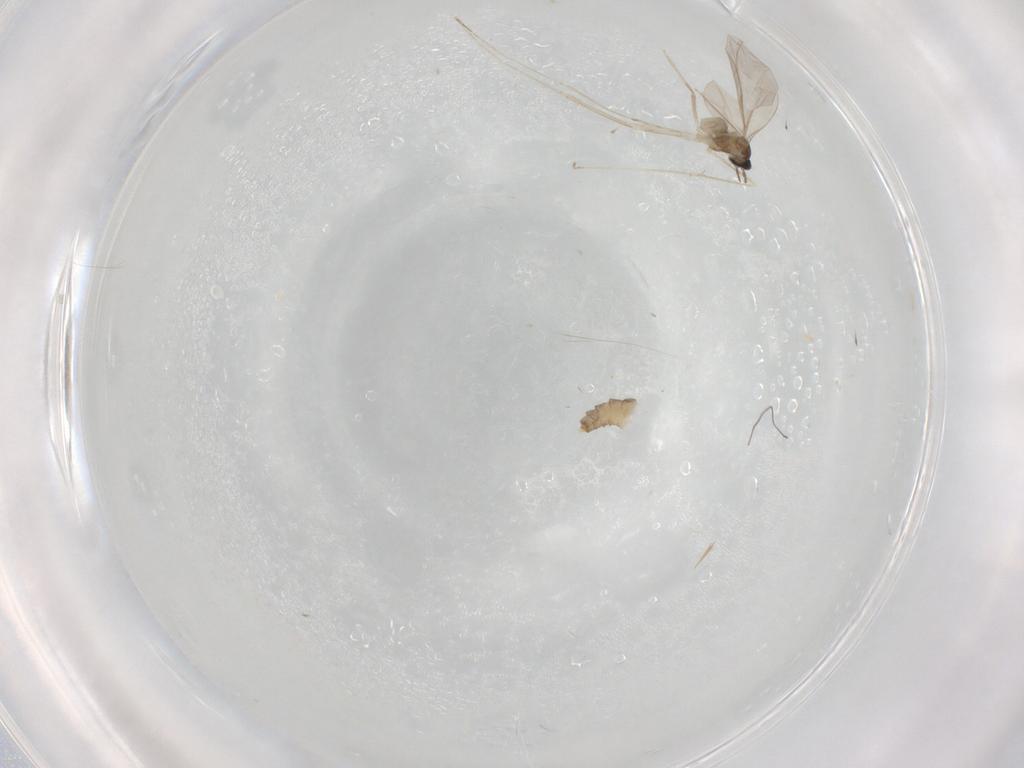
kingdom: Animalia
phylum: Arthropoda
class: Insecta
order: Diptera
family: Cecidomyiidae
